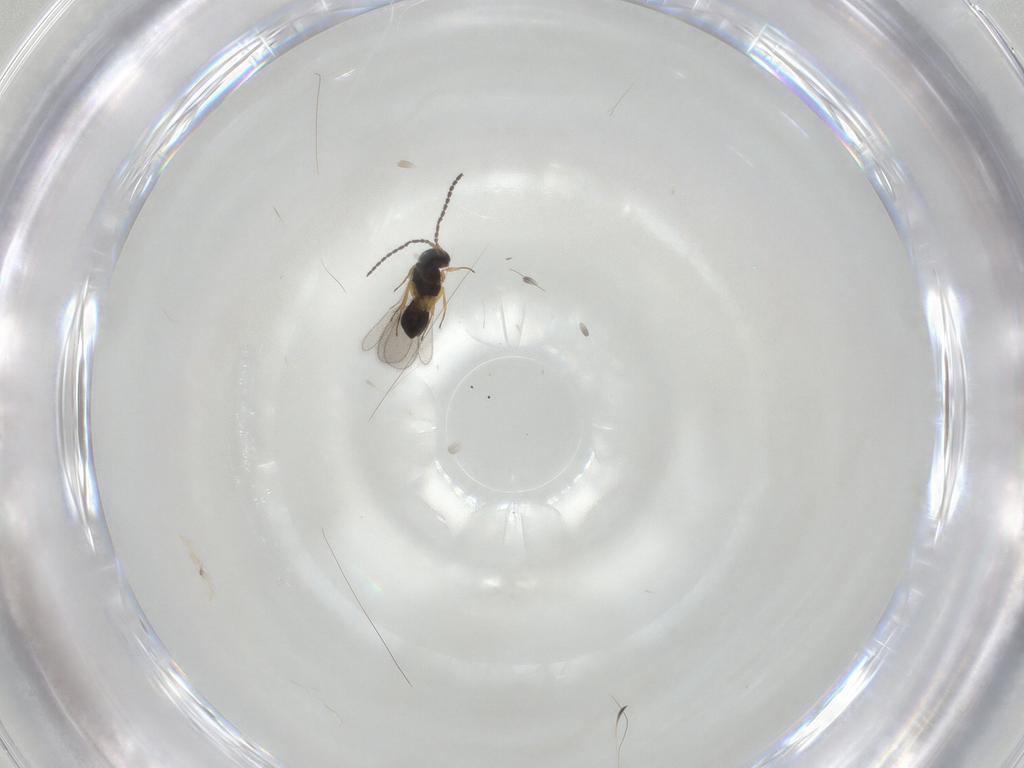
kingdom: Animalia
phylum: Arthropoda
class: Insecta
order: Hymenoptera
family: Scelionidae
